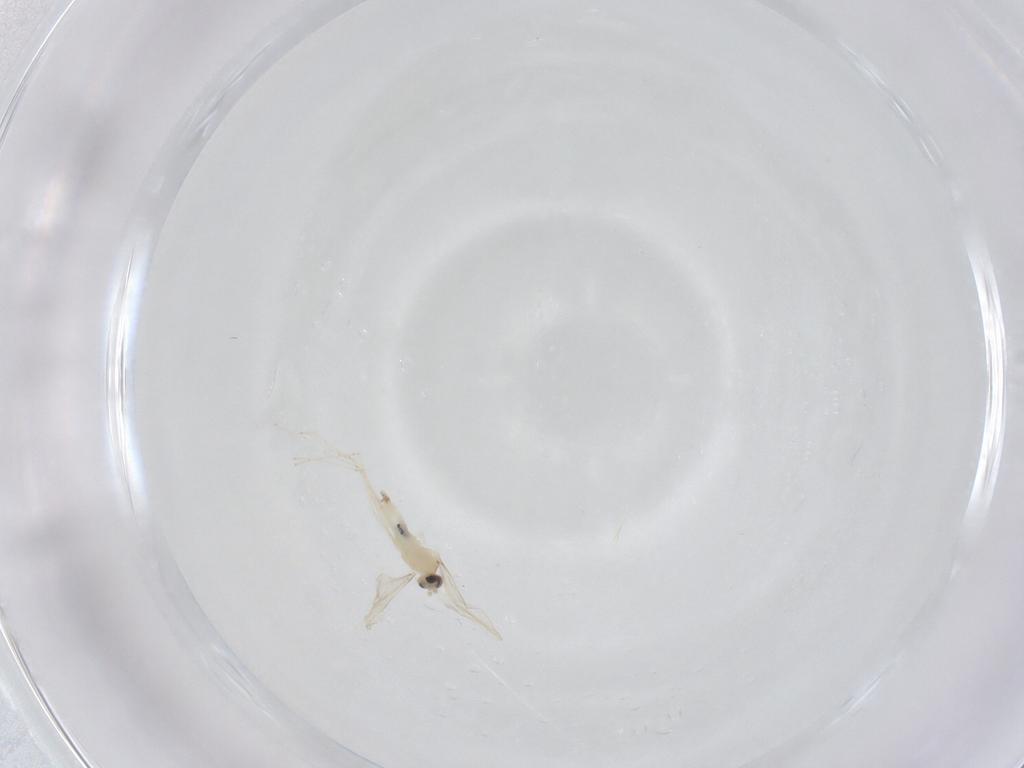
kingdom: Animalia
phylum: Arthropoda
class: Insecta
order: Diptera
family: Cecidomyiidae
